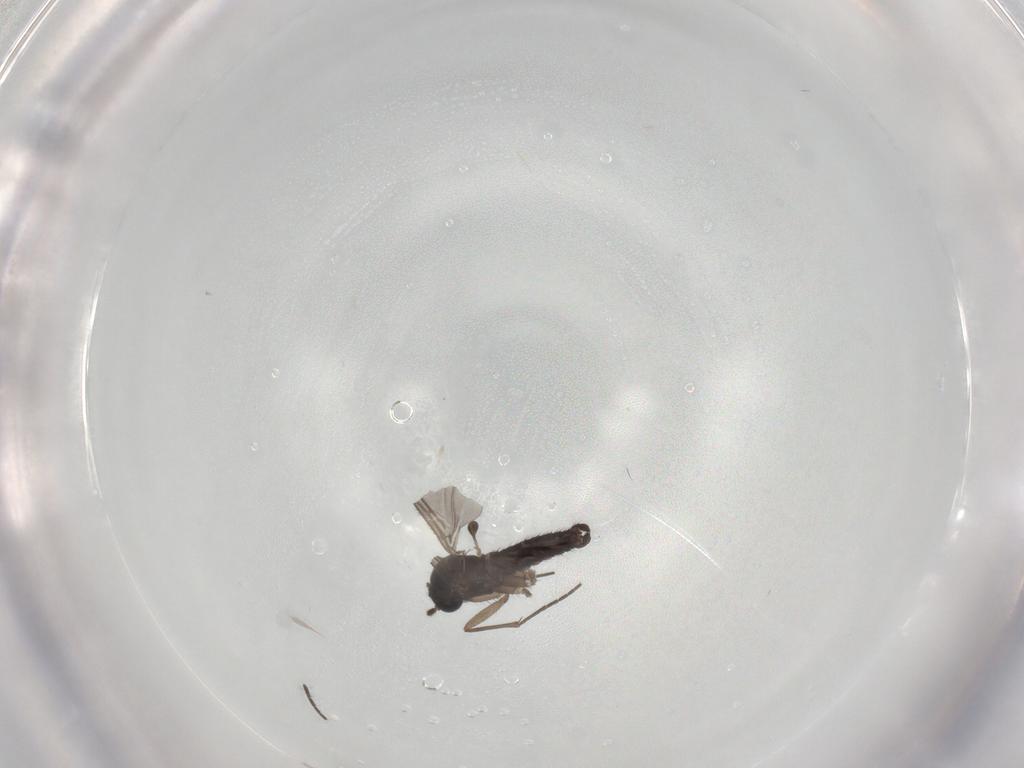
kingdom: Animalia
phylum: Arthropoda
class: Insecta
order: Diptera
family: Sciaridae
